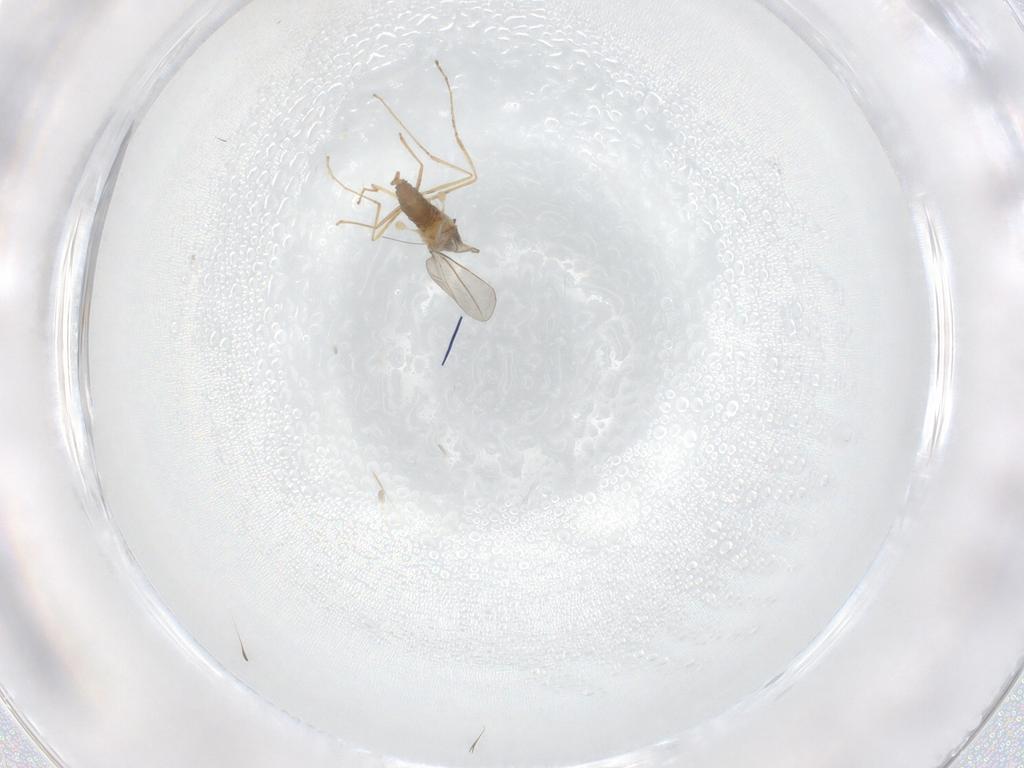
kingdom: Animalia
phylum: Arthropoda
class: Insecta
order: Diptera
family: Cecidomyiidae
